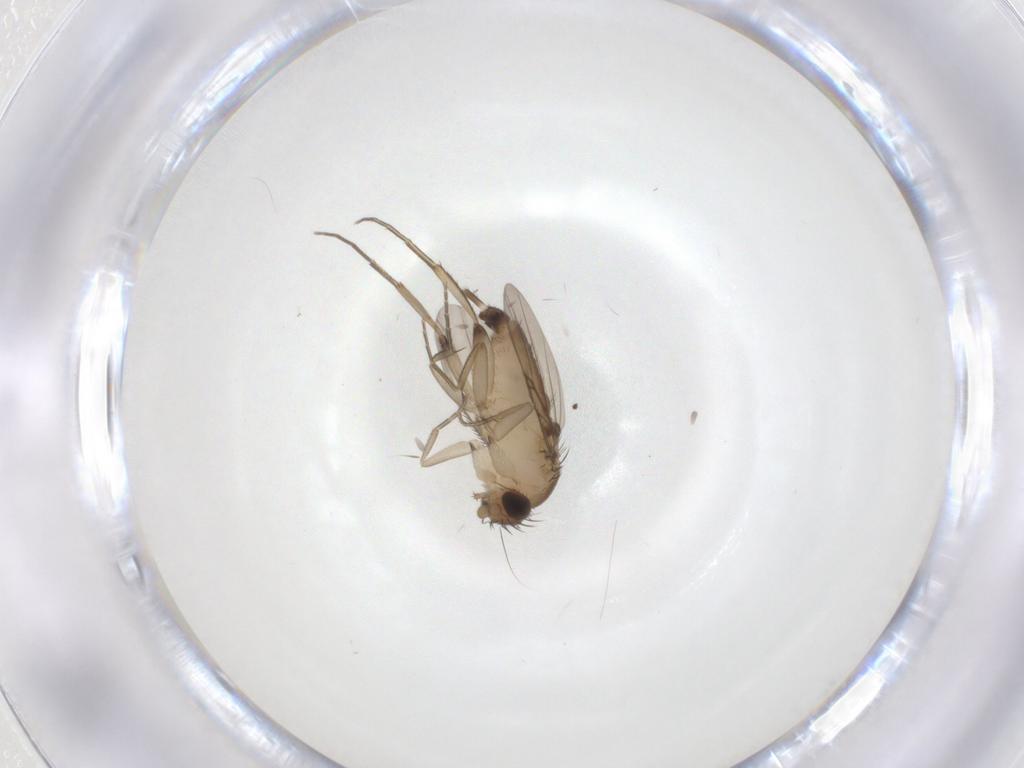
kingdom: Animalia
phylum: Arthropoda
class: Insecta
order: Diptera
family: Phoridae
